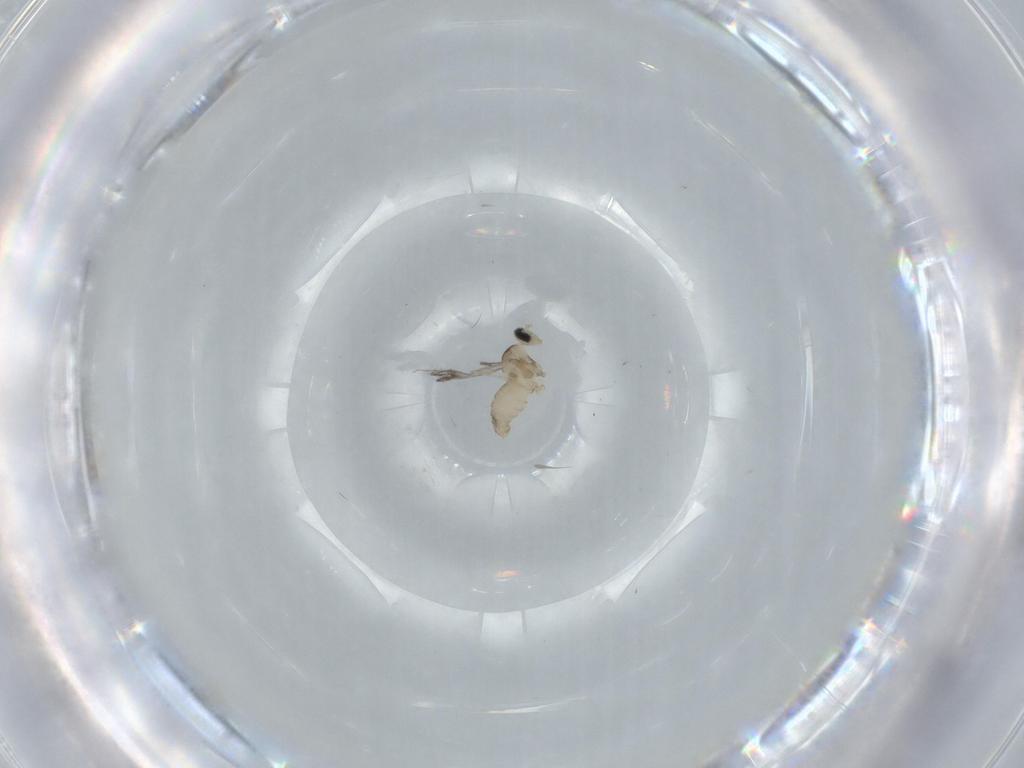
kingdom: Animalia
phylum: Arthropoda
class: Insecta
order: Diptera
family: Cecidomyiidae
